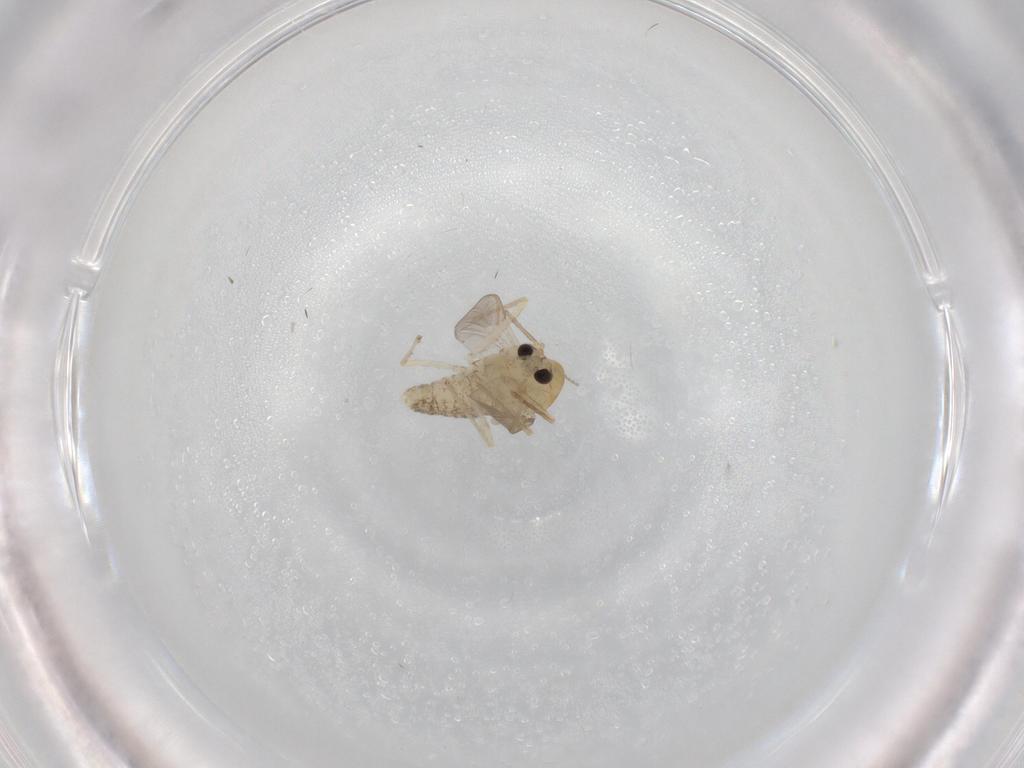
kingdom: Animalia
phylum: Arthropoda
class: Insecta
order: Diptera
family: Chironomidae
